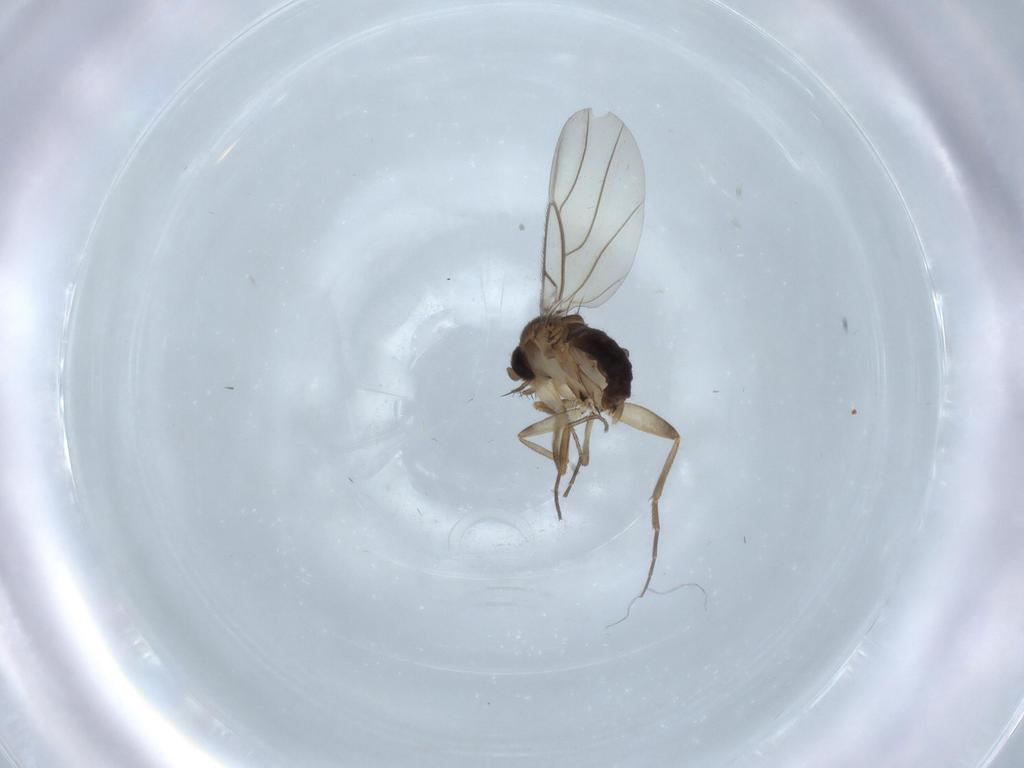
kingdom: Animalia
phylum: Arthropoda
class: Insecta
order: Diptera
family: Phoridae
